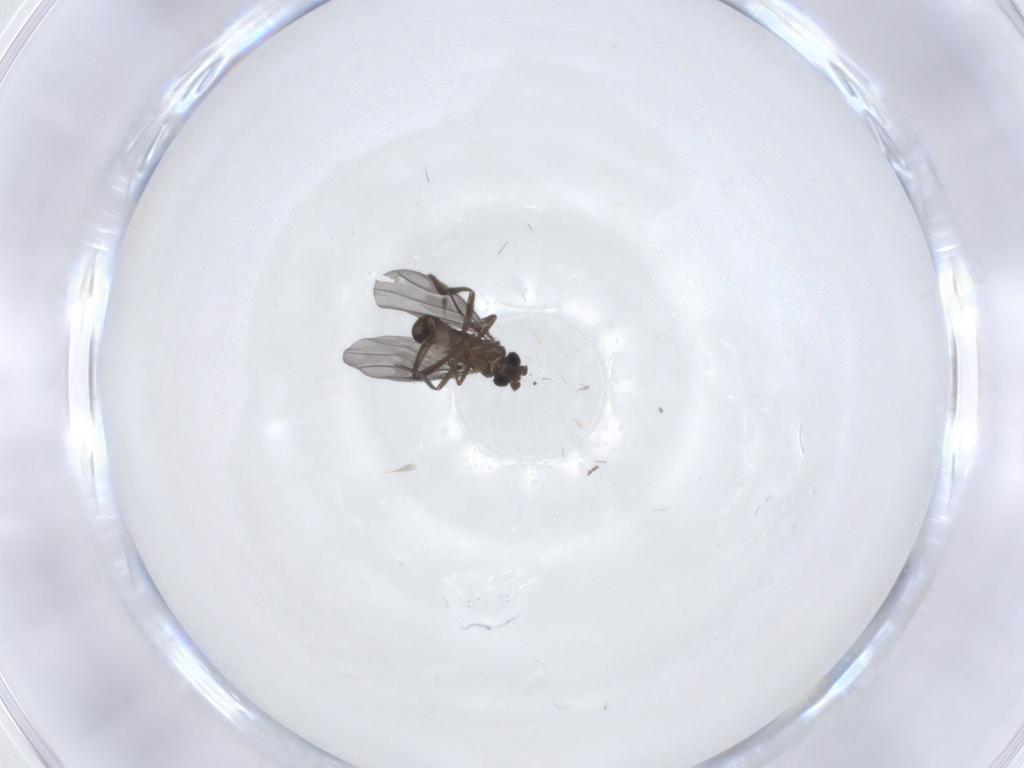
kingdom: Animalia
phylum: Arthropoda
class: Insecta
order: Diptera
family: Phoridae
